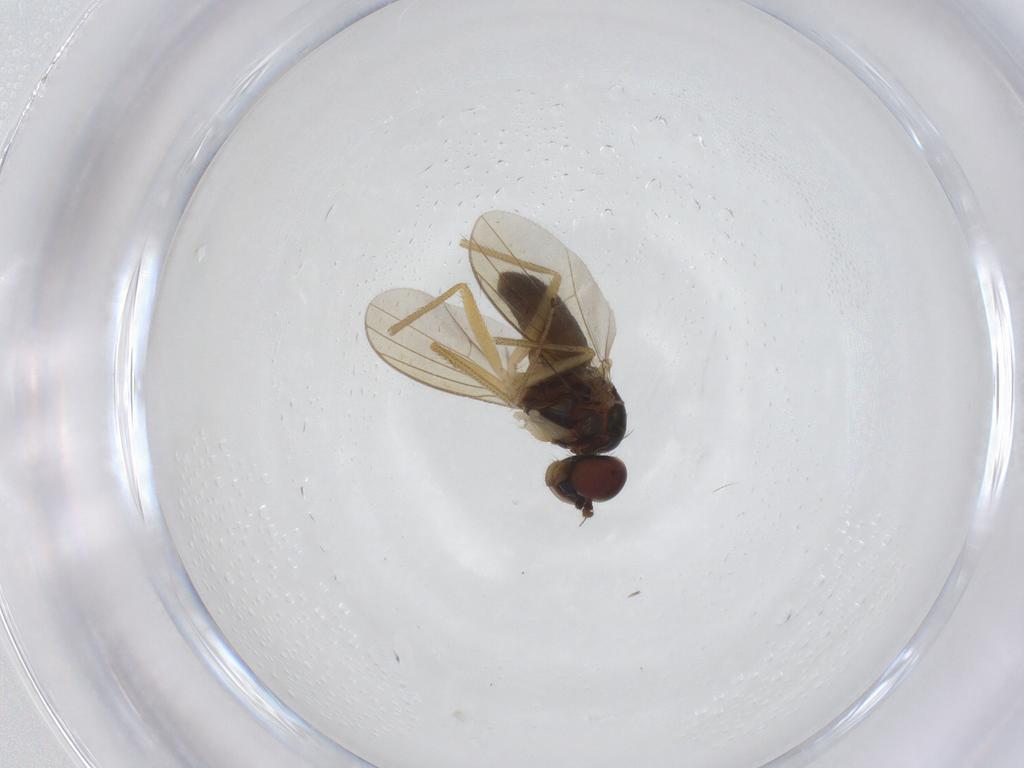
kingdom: Animalia
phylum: Arthropoda
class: Insecta
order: Diptera
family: Dolichopodidae
